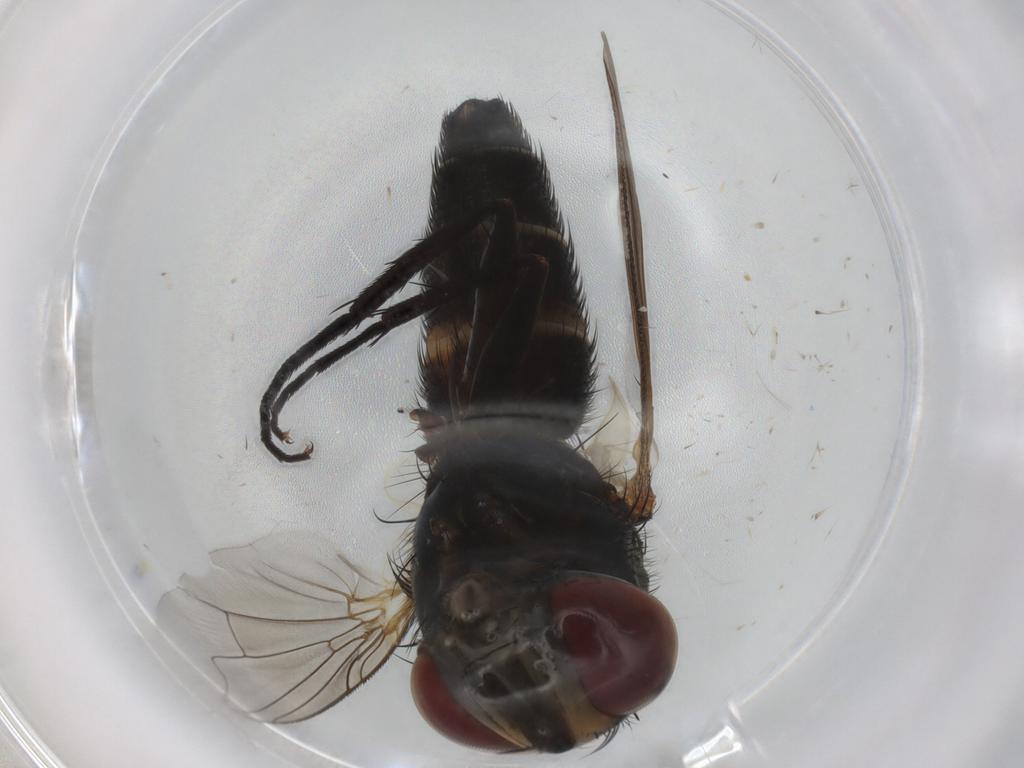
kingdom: Animalia
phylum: Arthropoda
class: Insecta
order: Diptera
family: Anthomyiidae
